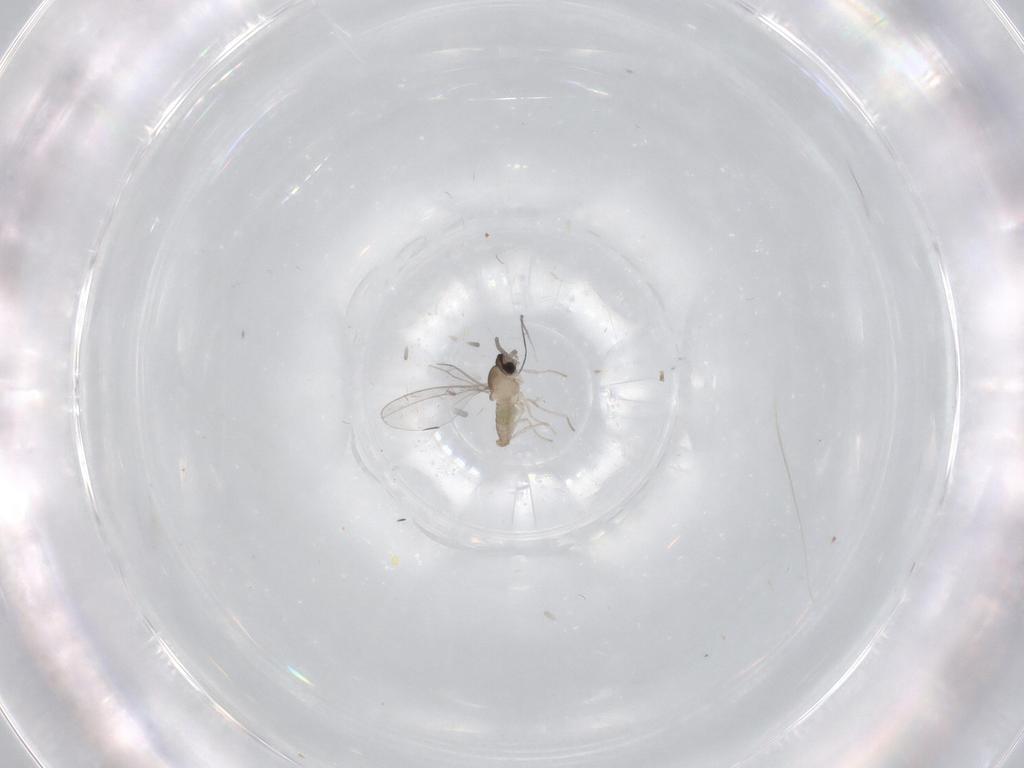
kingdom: Animalia
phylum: Arthropoda
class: Insecta
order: Diptera
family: Cecidomyiidae
